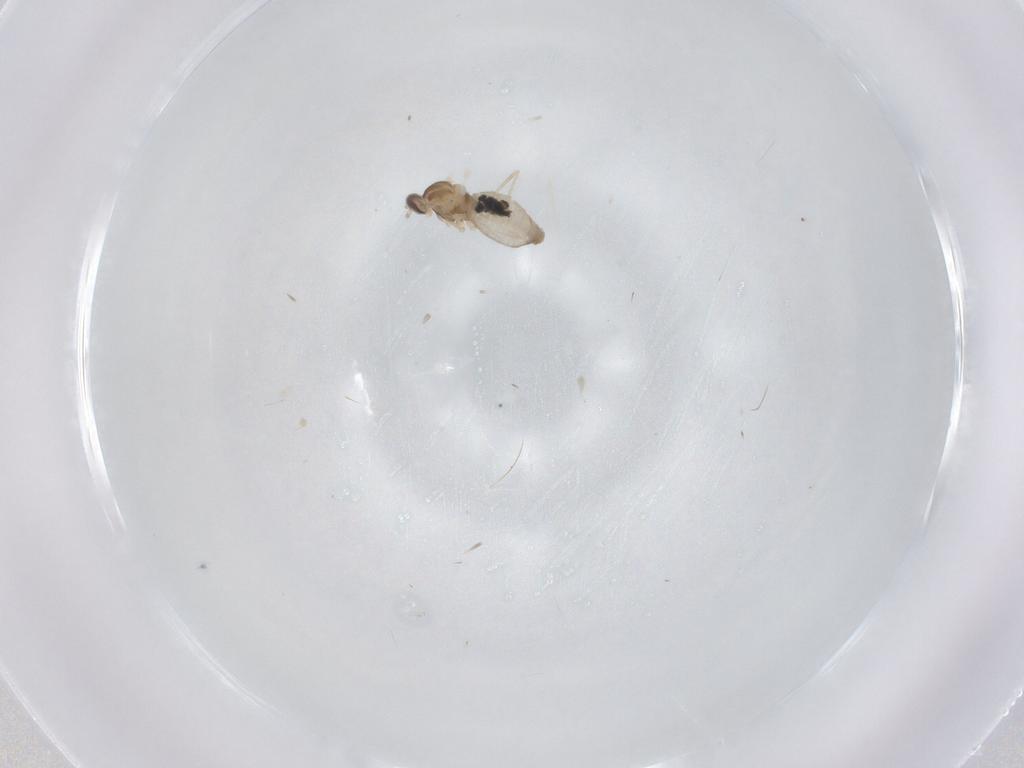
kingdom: Animalia
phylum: Arthropoda
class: Insecta
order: Diptera
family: Cecidomyiidae
